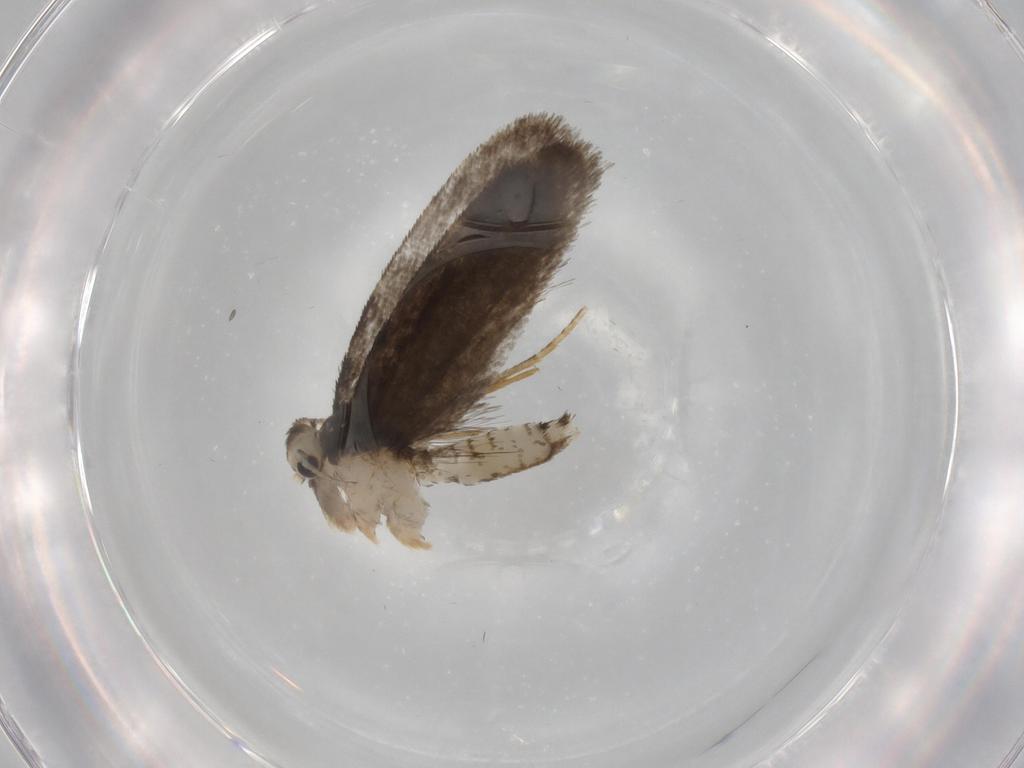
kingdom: Animalia
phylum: Arthropoda
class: Insecta
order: Lepidoptera
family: Psychidae
